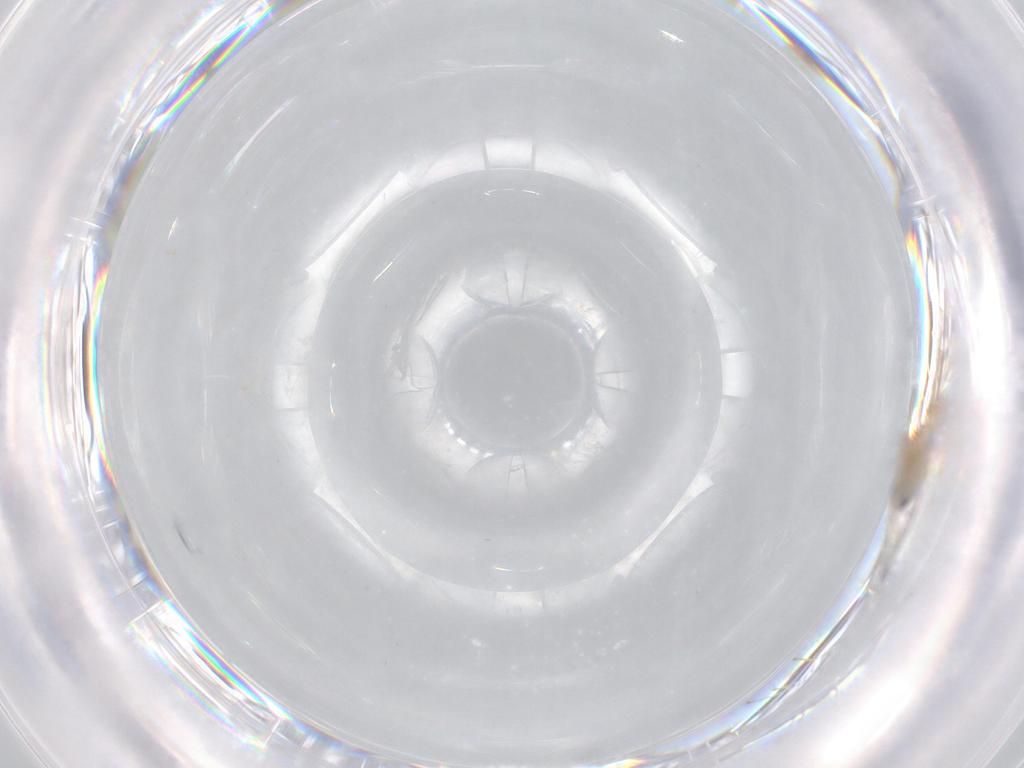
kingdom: Animalia
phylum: Arthropoda
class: Insecta
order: Diptera
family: Cecidomyiidae
